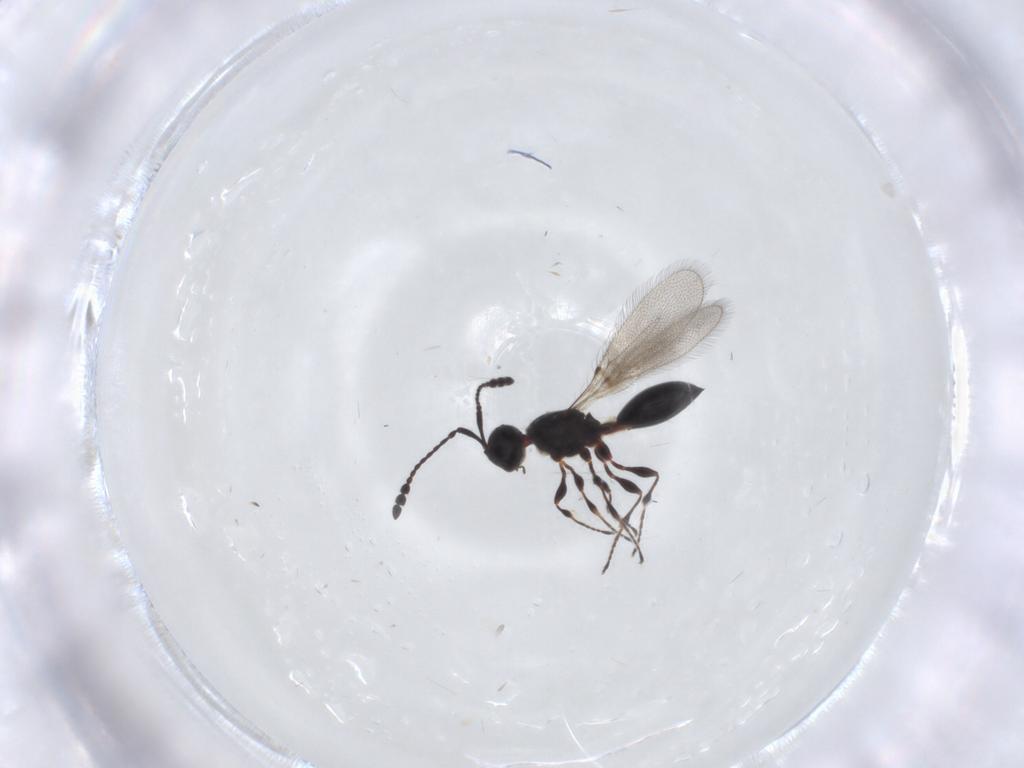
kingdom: Animalia
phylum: Arthropoda
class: Insecta
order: Hymenoptera
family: Diapriidae
